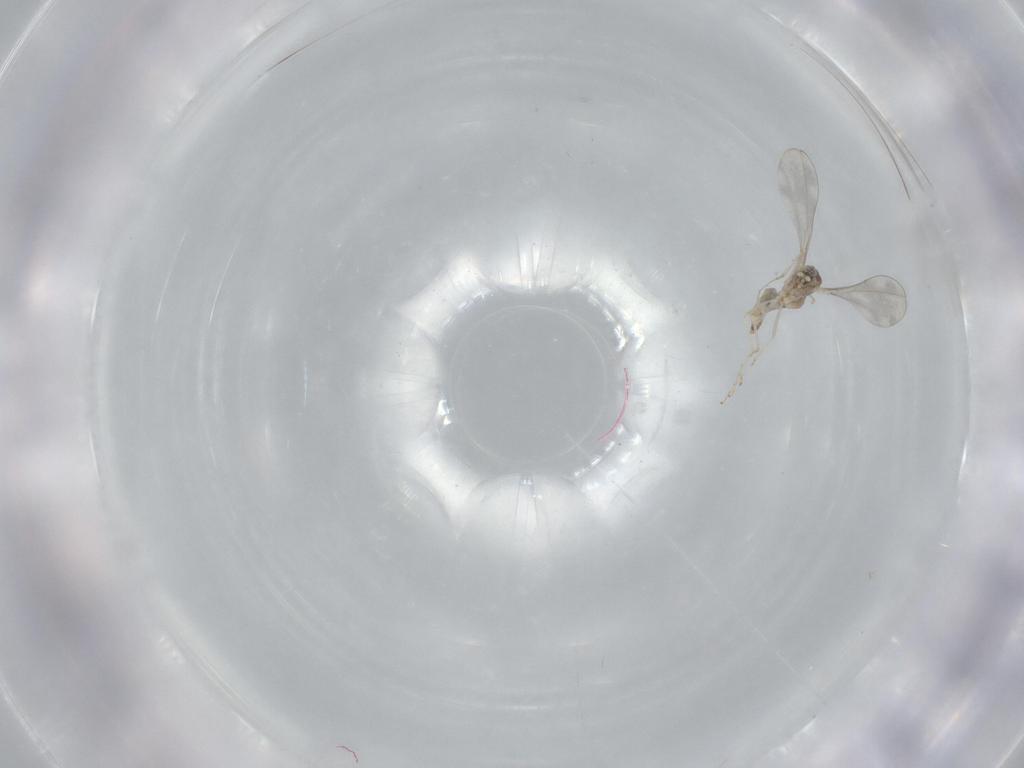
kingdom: Animalia
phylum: Arthropoda
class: Insecta
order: Diptera
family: Cecidomyiidae
